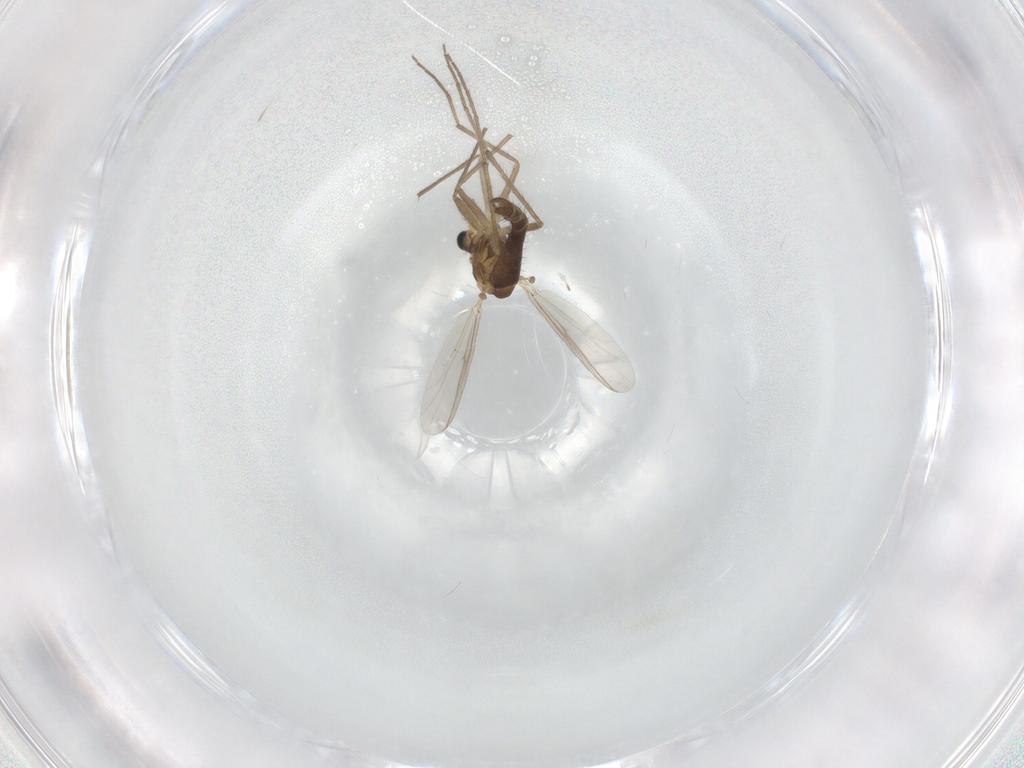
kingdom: Animalia
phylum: Arthropoda
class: Insecta
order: Diptera
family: Chironomidae
